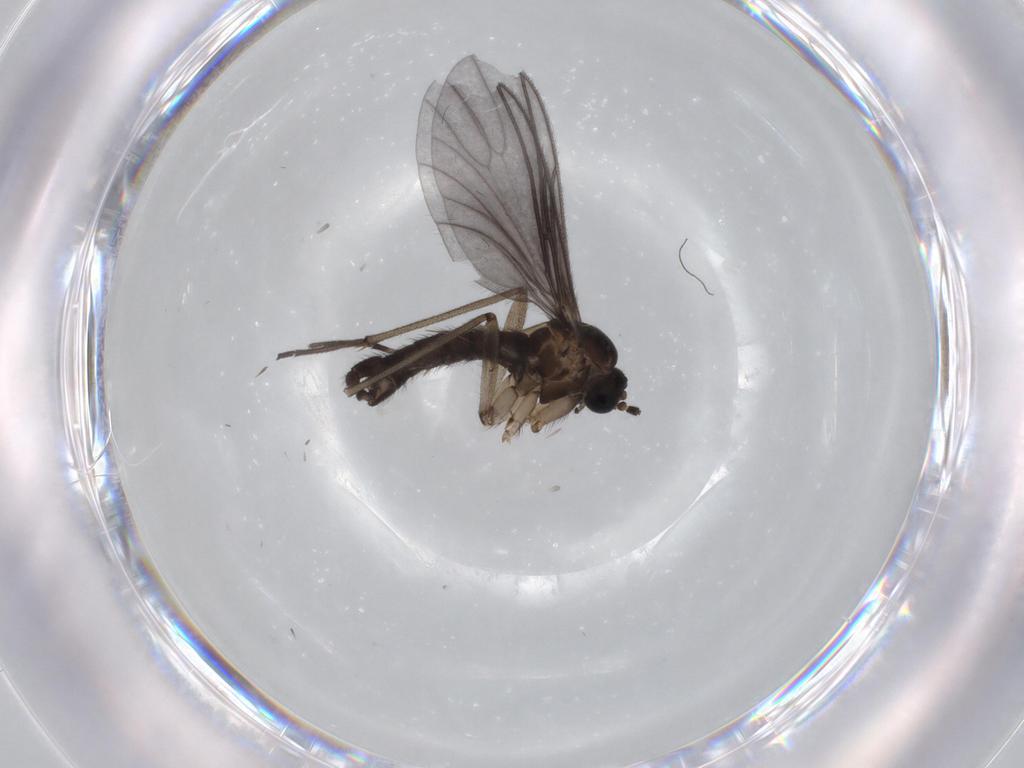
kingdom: Animalia
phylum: Arthropoda
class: Insecta
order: Diptera
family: Sciaridae
